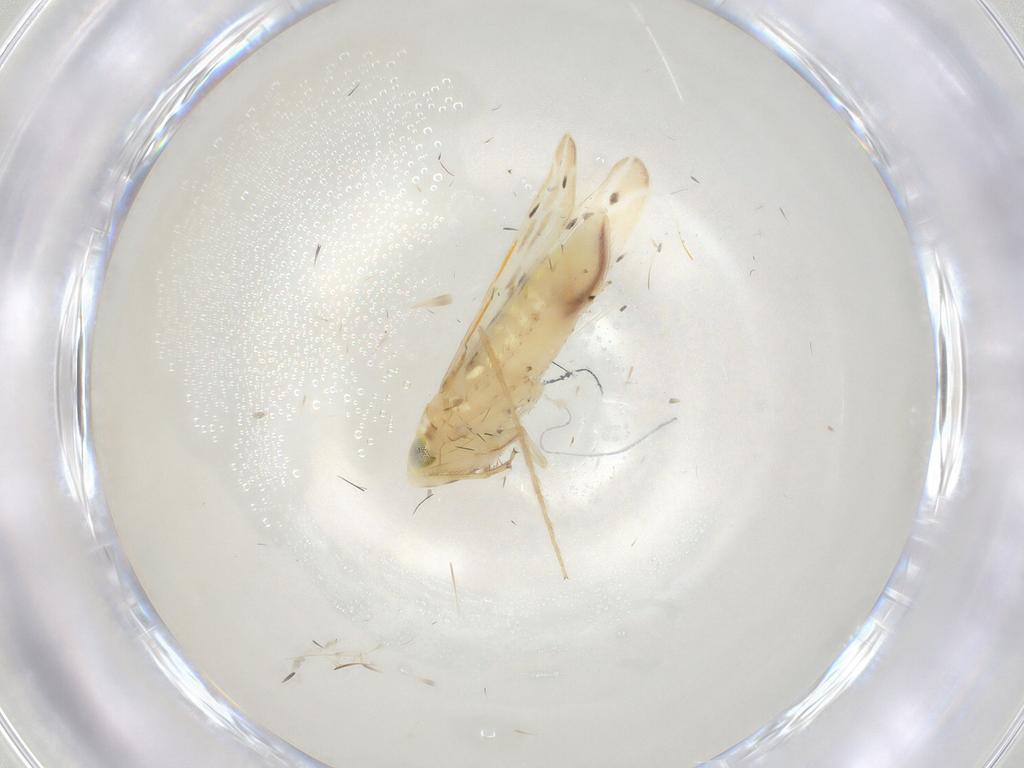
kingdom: Animalia
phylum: Arthropoda
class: Insecta
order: Hemiptera
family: Cicadellidae
